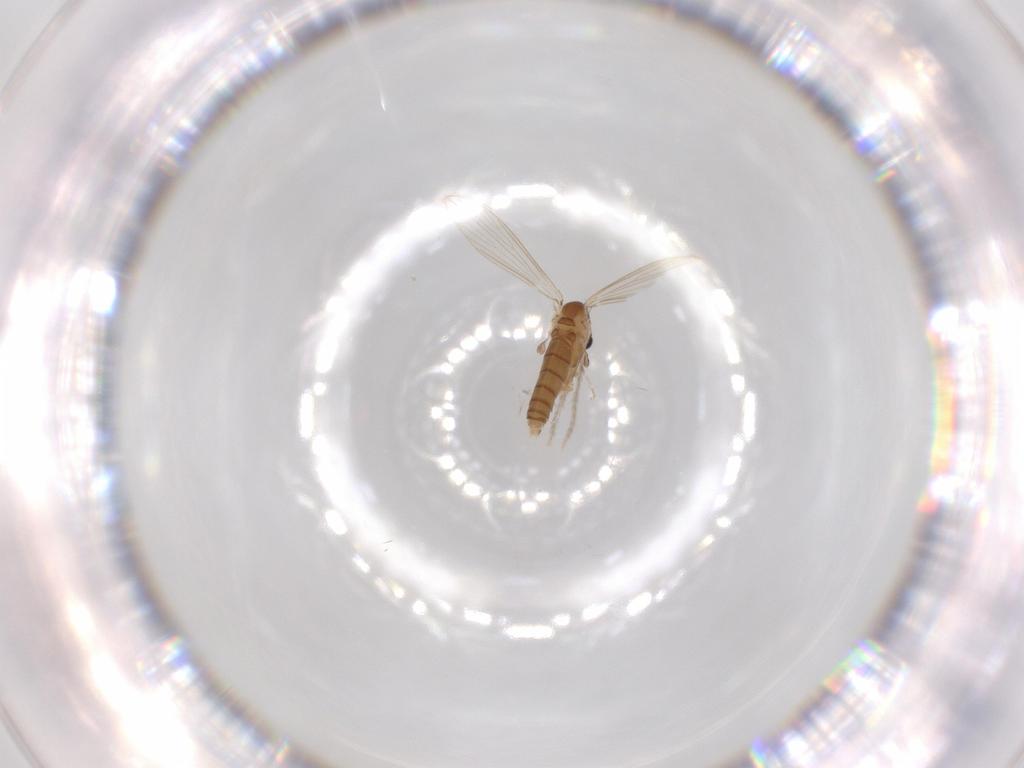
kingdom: Animalia
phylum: Arthropoda
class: Insecta
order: Diptera
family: Psychodidae
